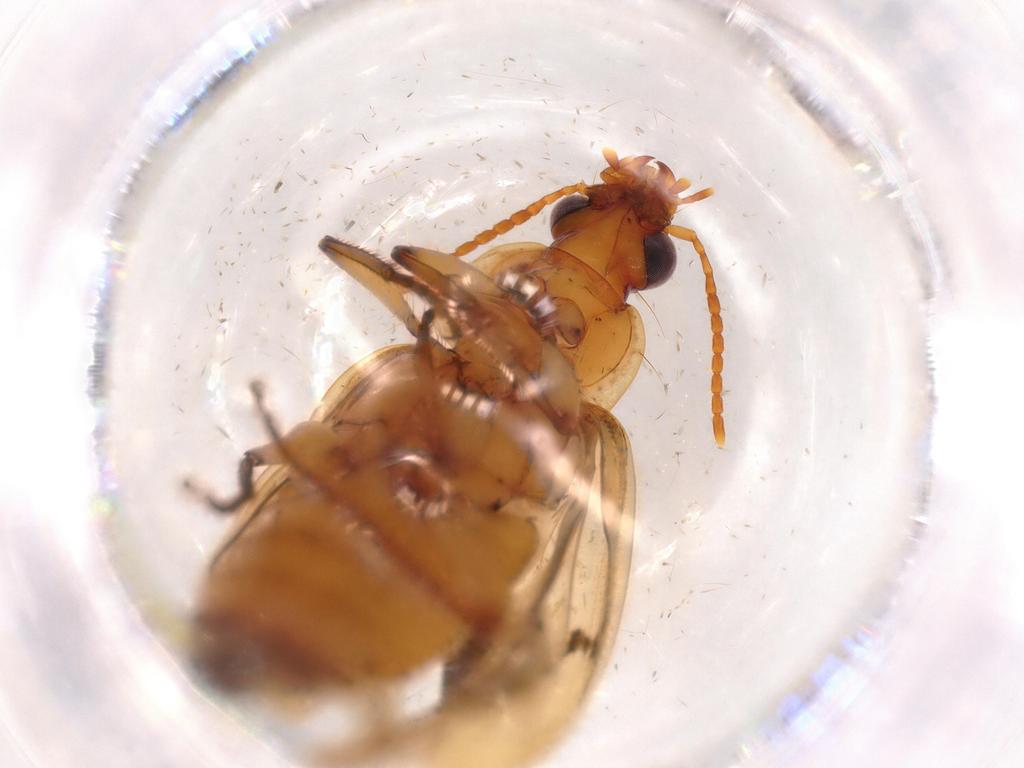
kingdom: Animalia
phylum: Arthropoda
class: Insecta
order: Coleoptera
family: Carabidae
